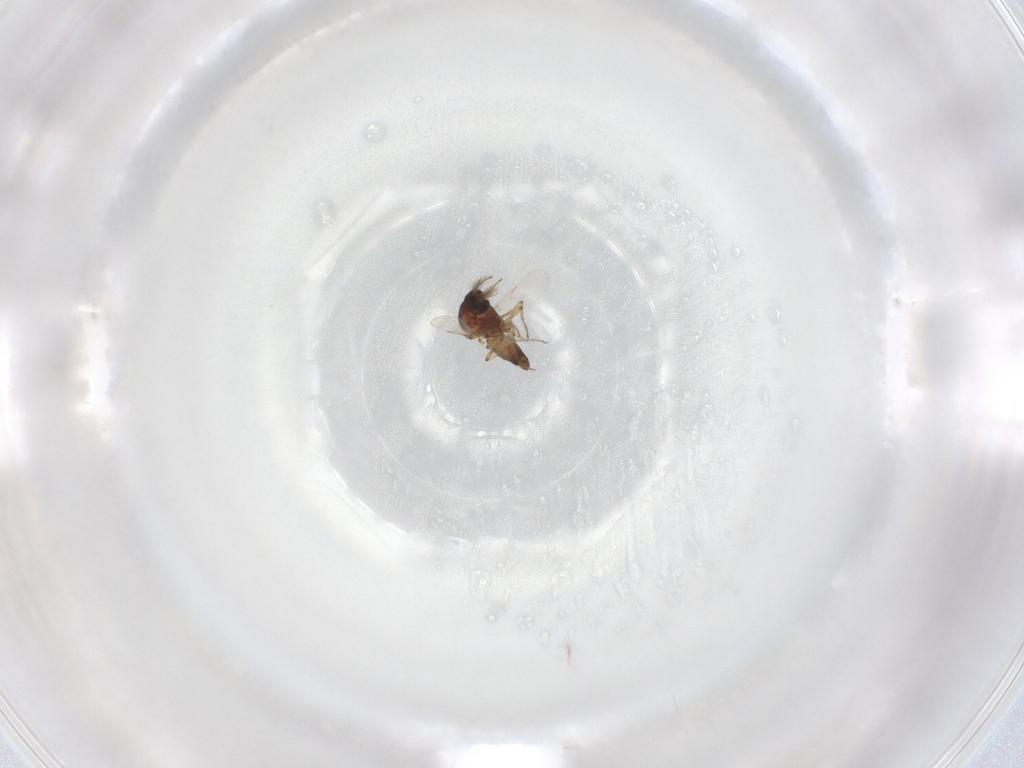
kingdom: Animalia
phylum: Arthropoda
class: Insecta
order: Diptera
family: Ceratopogonidae
